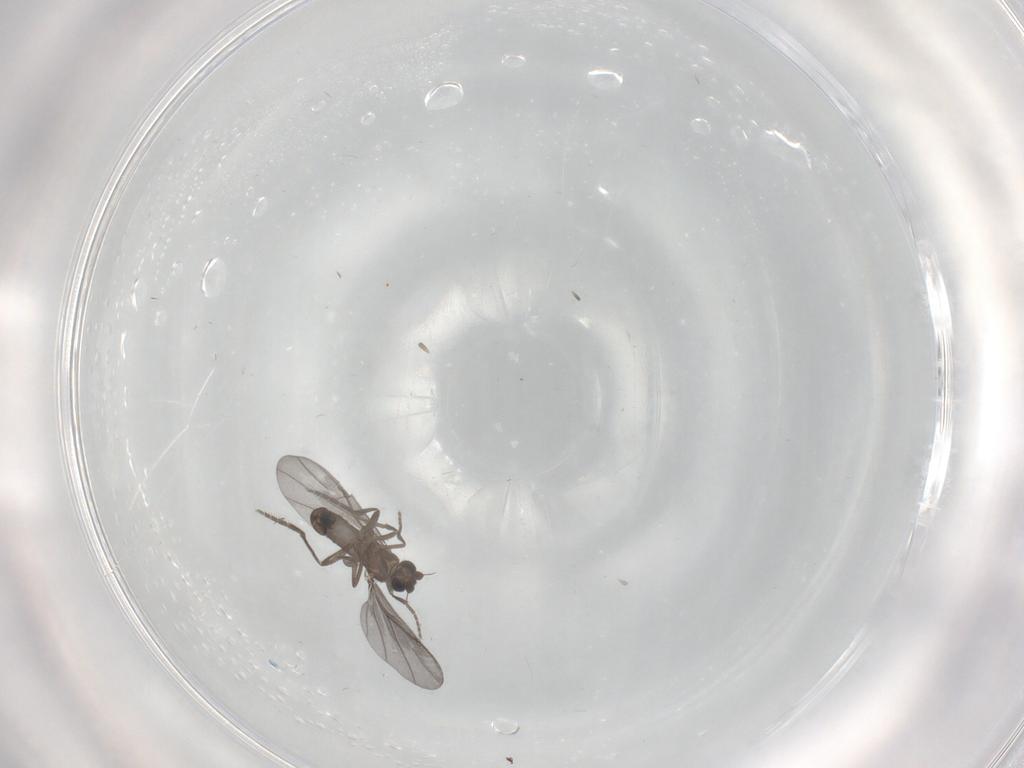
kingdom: Animalia
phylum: Arthropoda
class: Insecta
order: Diptera
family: Phoridae
